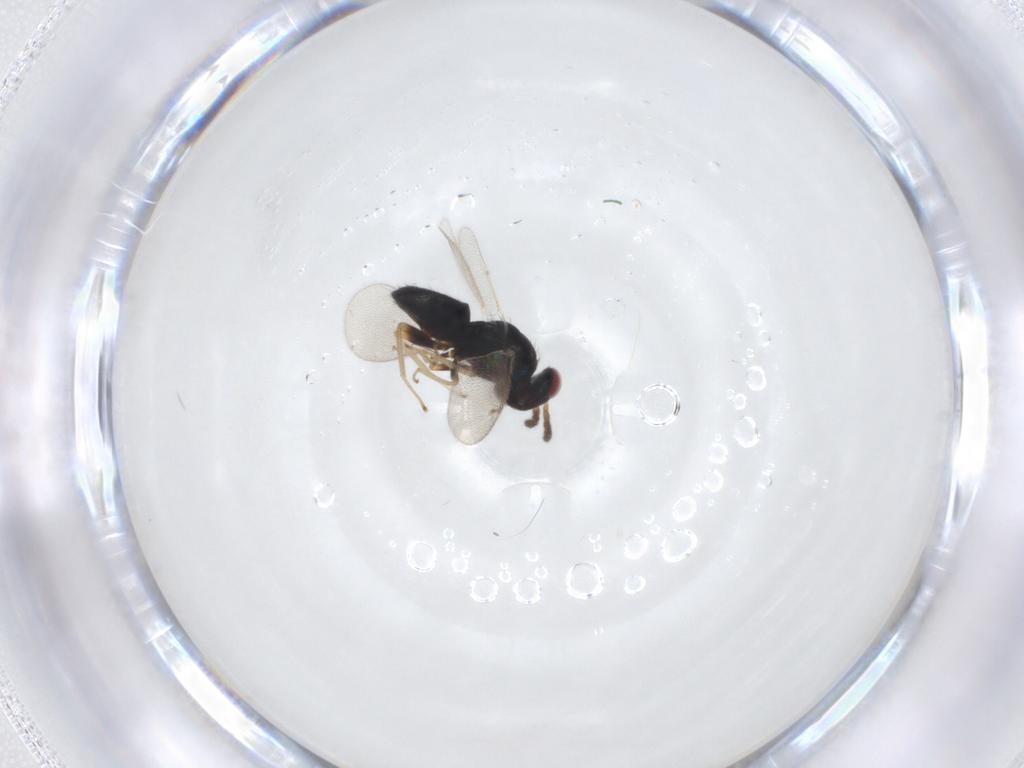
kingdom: Animalia
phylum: Arthropoda
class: Insecta
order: Hymenoptera
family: Eulophidae
